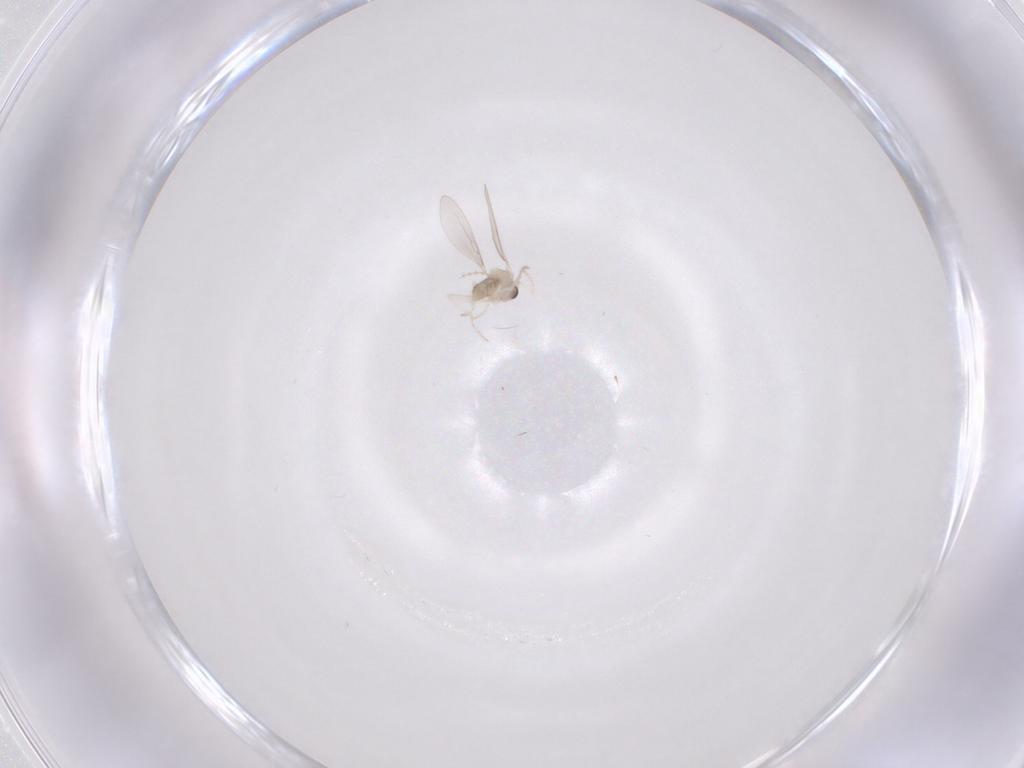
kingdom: Animalia
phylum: Arthropoda
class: Insecta
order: Diptera
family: Cecidomyiidae
